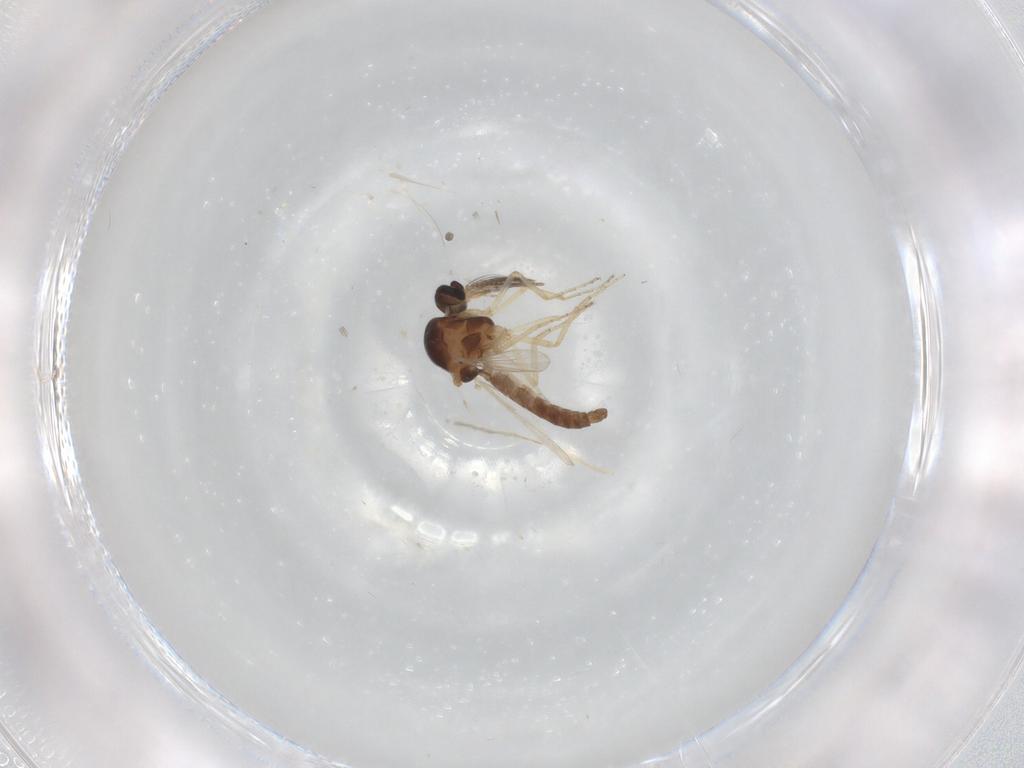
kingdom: Animalia
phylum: Arthropoda
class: Insecta
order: Diptera
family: Ceratopogonidae
